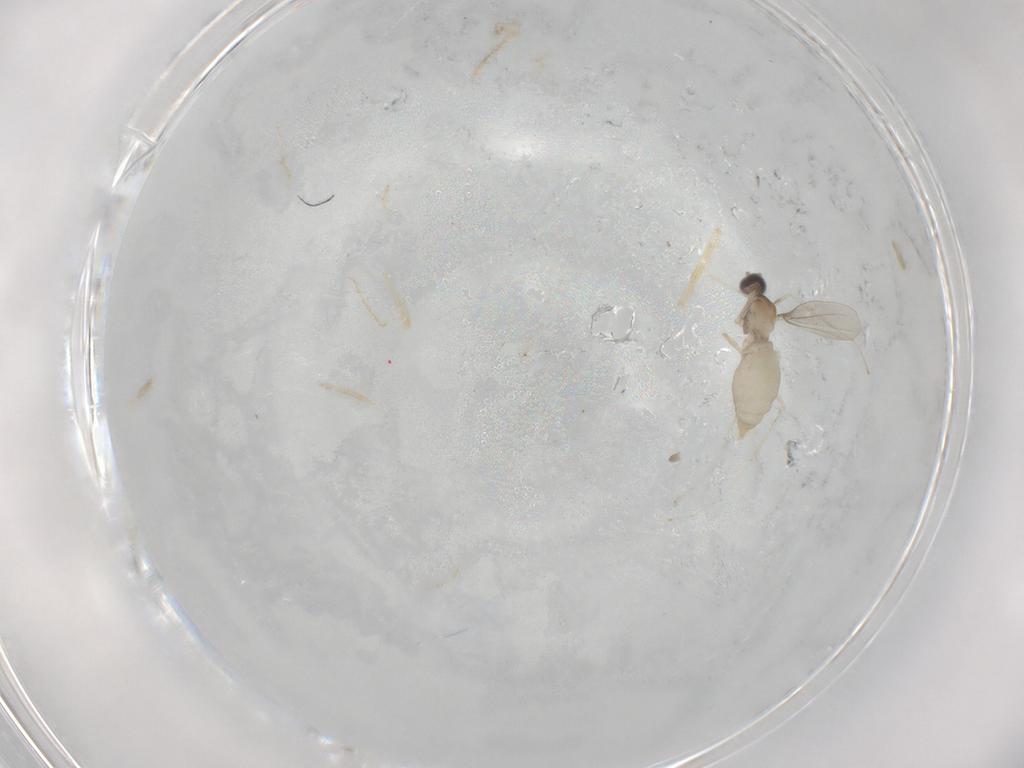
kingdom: Animalia
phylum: Arthropoda
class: Insecta
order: Diptera
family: Cecidomyiidae
